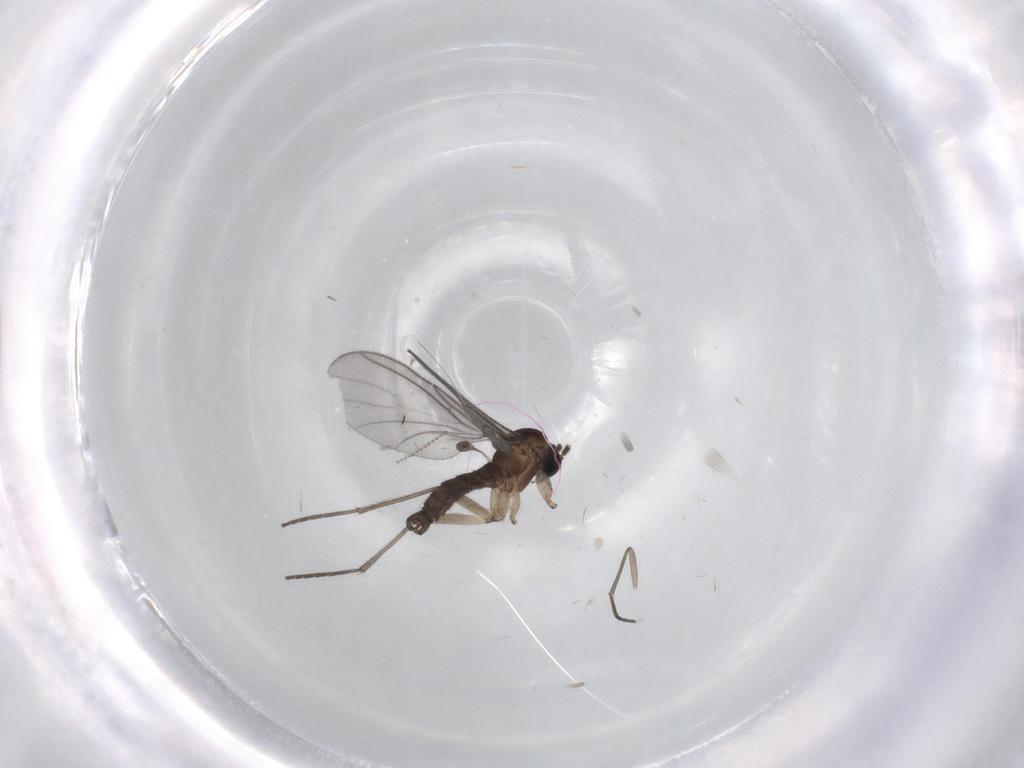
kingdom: Animalia
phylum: Arthropoda
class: Insecta
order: Diptera
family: Sciaridae
